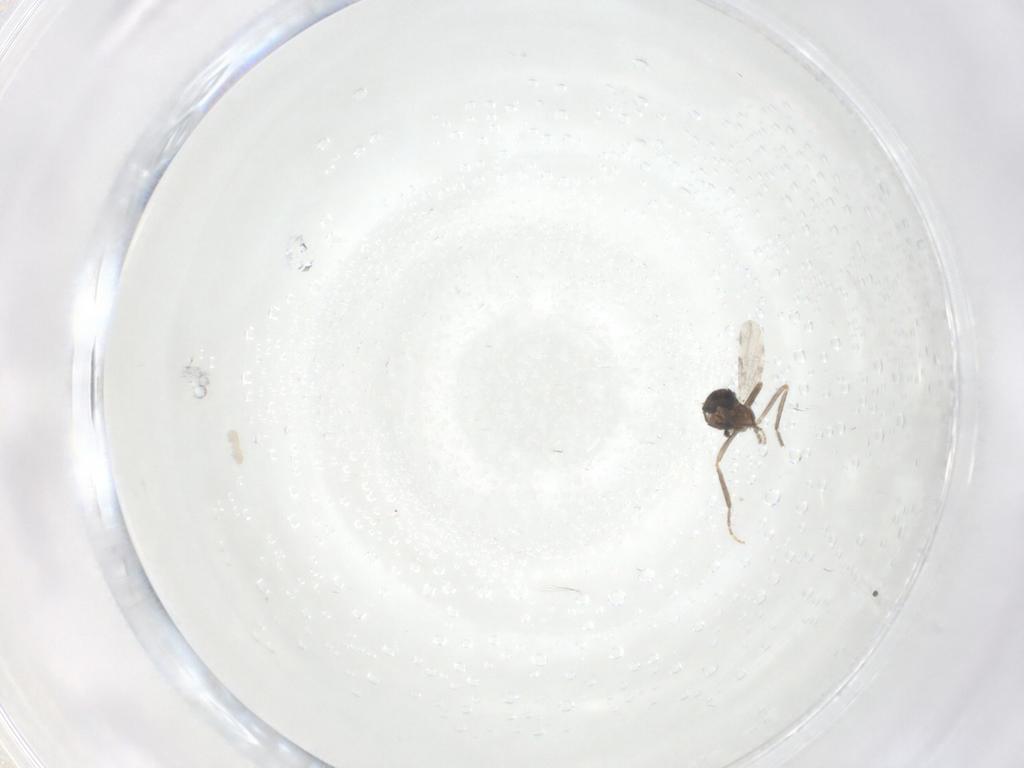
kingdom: Animalia
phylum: Arthropoda
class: Insecta
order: Diptera
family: Ceratopogonidae
